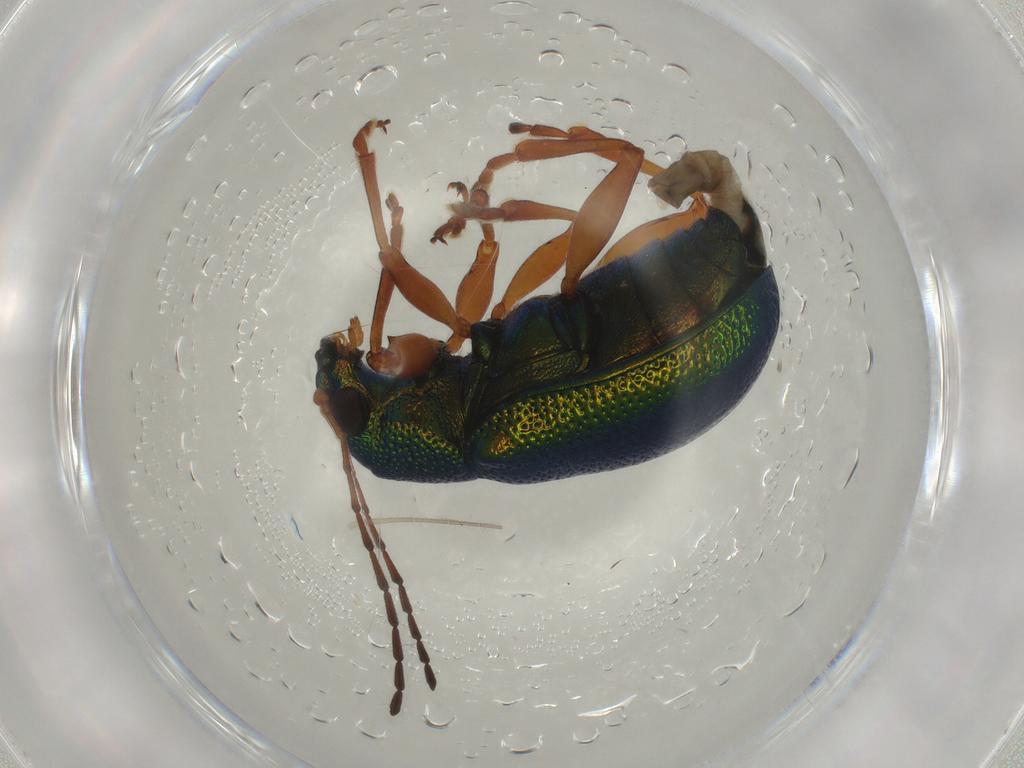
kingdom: Animalia
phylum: Arthropoda
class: Insecta
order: Coleoptera
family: Chrysomelidae
